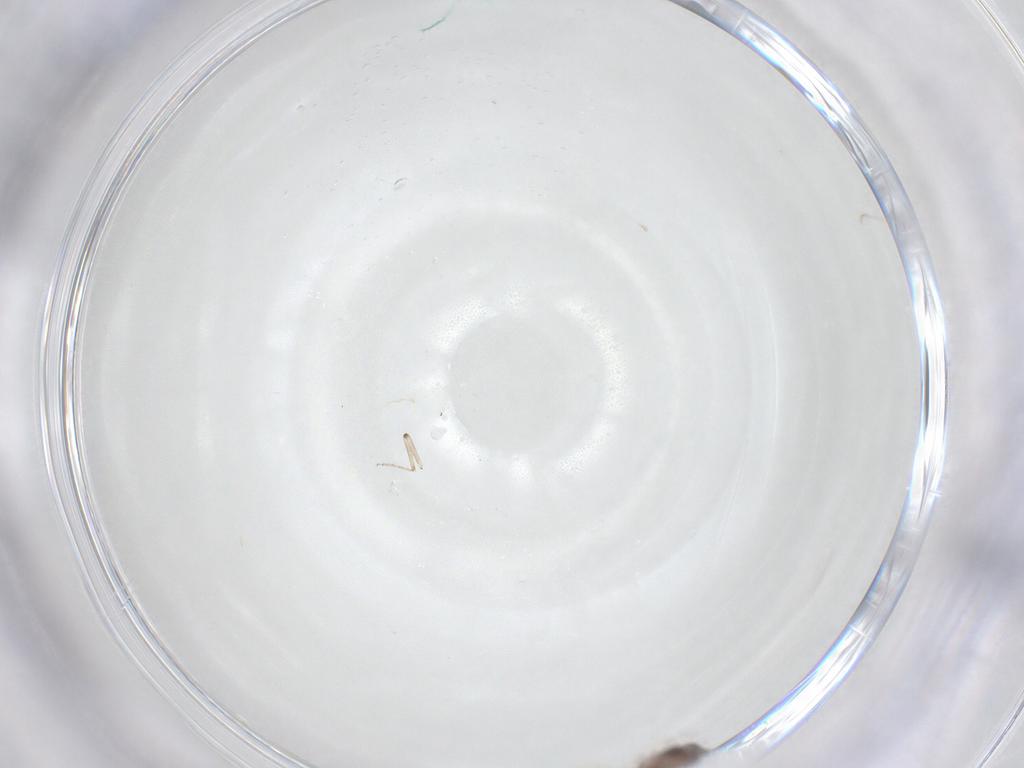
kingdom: Animalia
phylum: Arthropoda
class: Insecta
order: Diptera
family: Ceratopogonidae
